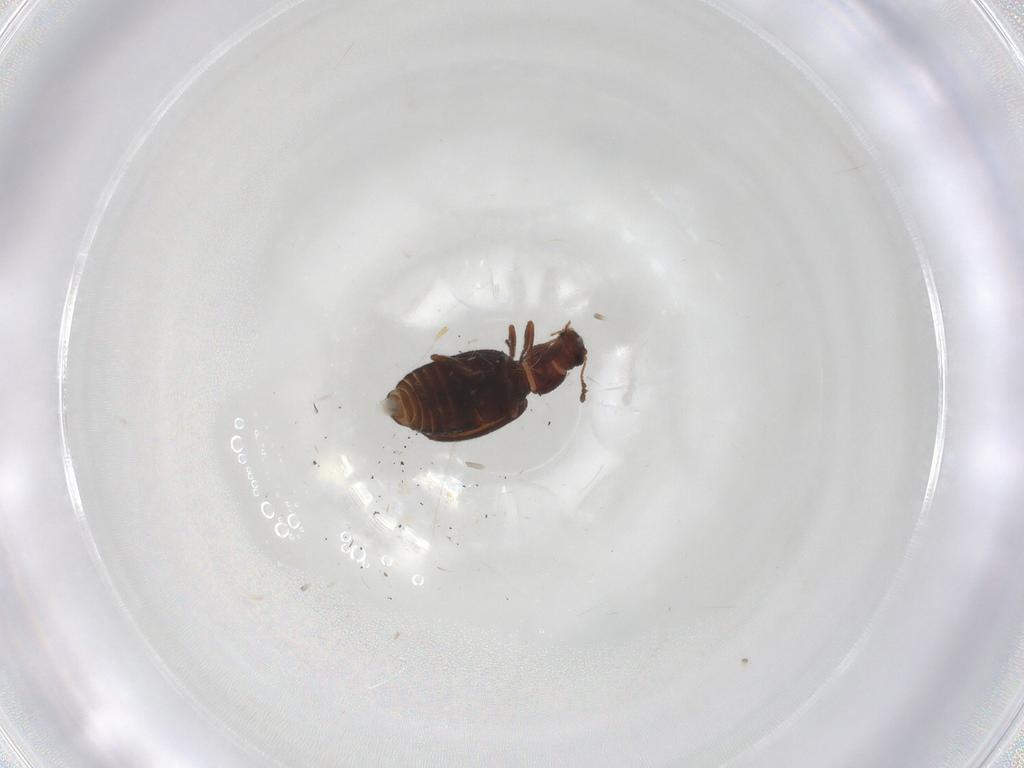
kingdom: Animalia
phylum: Arthropoda
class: Insecta
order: Coleoptera
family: Latridiidae
